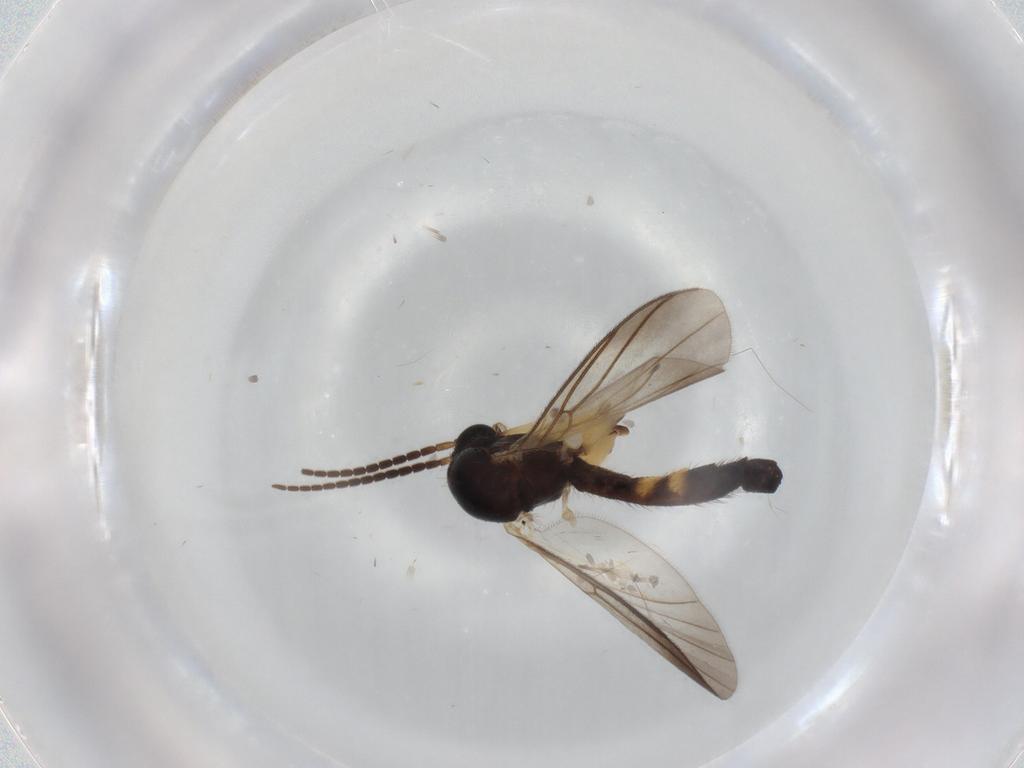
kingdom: Animalia
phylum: Arthropoda
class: Insecta
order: Diptera
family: Mycetophilidae
